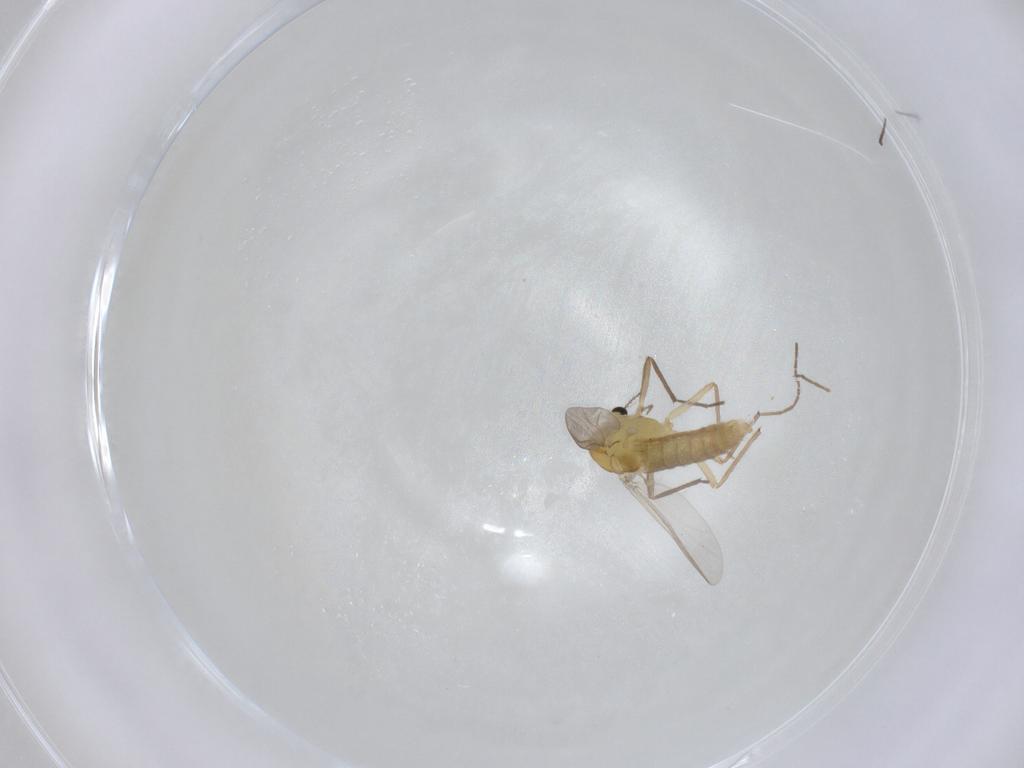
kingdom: Animalia
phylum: Arthropoda
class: Insecta
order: Diptera
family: Chironomidae
